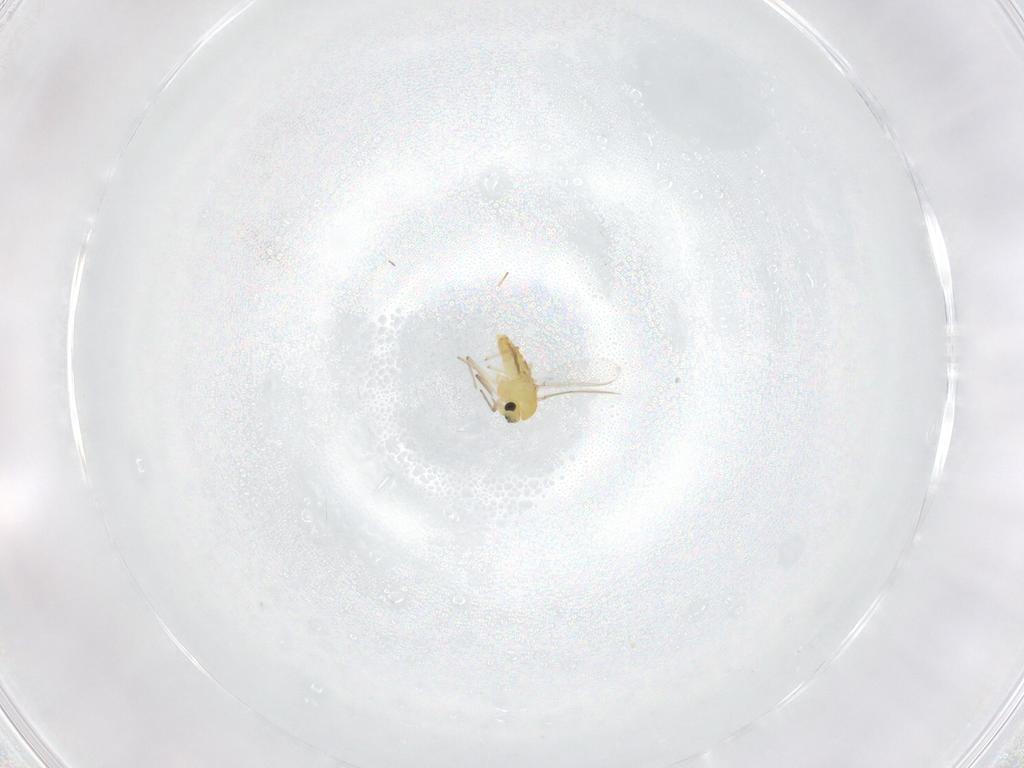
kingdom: Animalia
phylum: Arthropoda
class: Insecta
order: Diptera
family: Chironomidae
